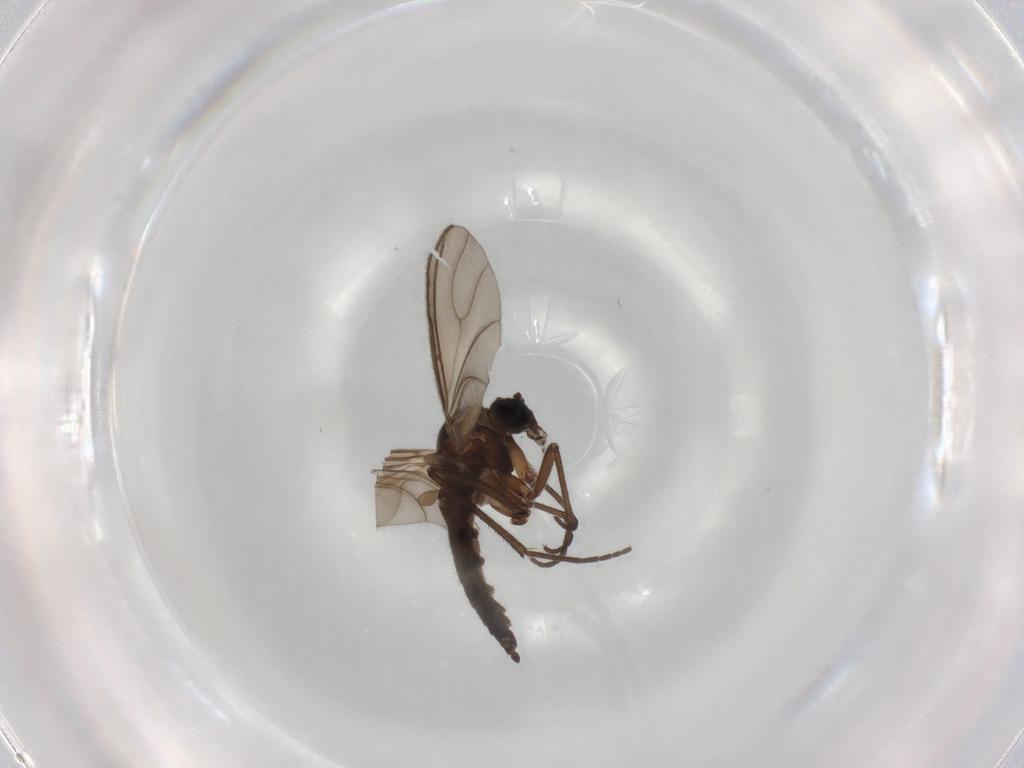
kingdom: Animalia
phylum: Arthropoda
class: Insecta
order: Diptera
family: Sciaridae
